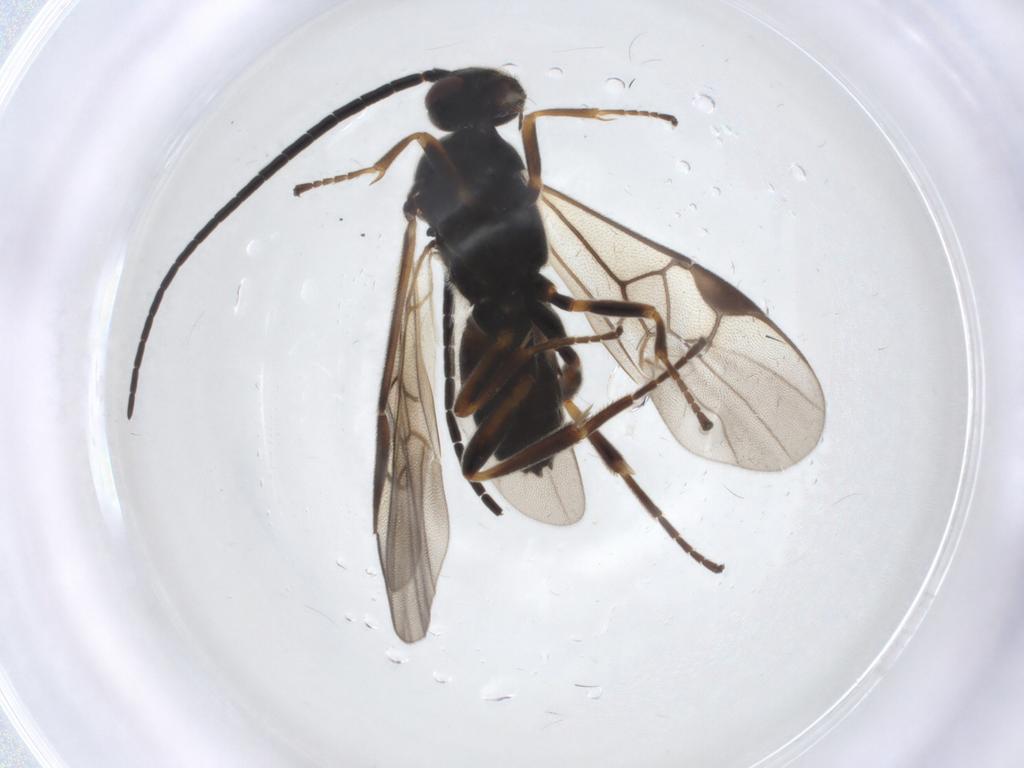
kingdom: Animalia
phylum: Arthropoda
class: Insecta
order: Hymenoptera
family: Braconidae
